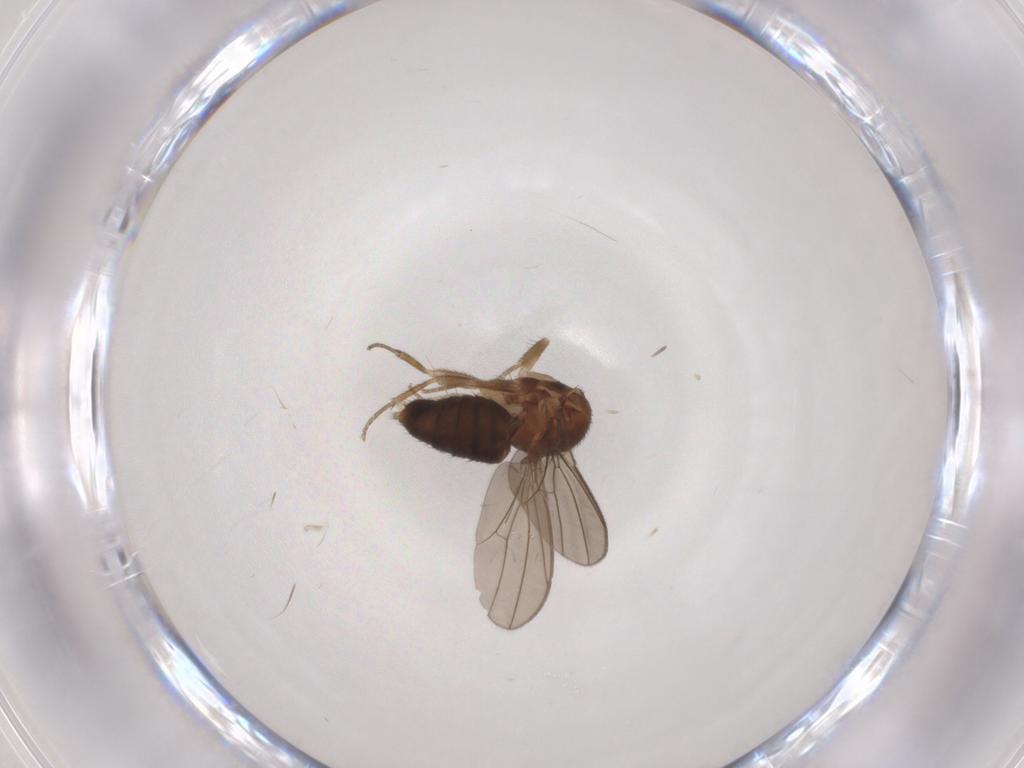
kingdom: Animalia
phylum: Arthropoda
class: Insecta
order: Diptera
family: Drosophilidae
